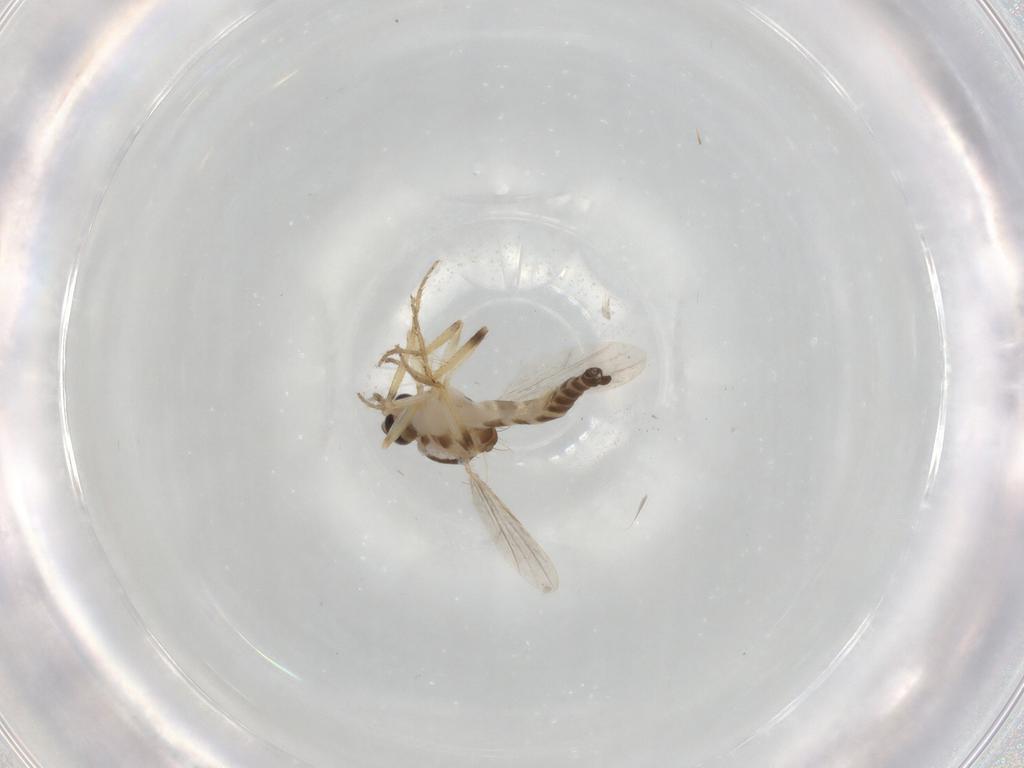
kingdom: Animalia
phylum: Arthropoda
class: Insecta
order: Diptera
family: Ceratopogonidae
